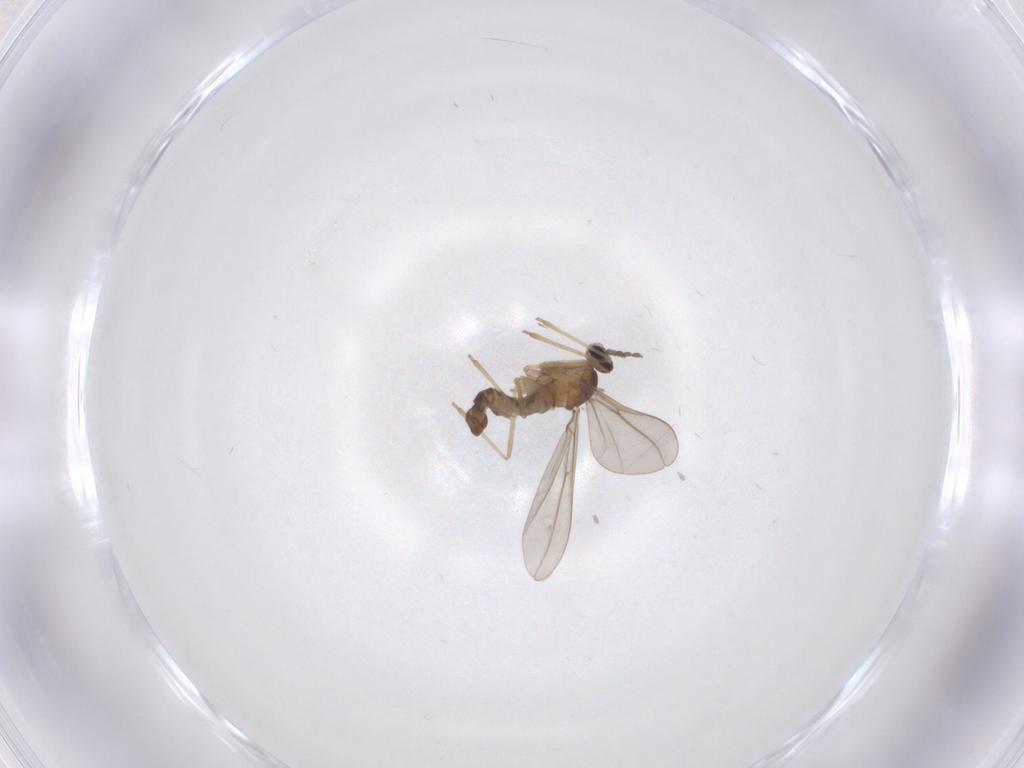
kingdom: Animalia
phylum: Arthropoda
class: Insecta
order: Diptera
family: Cecidomyiidae
